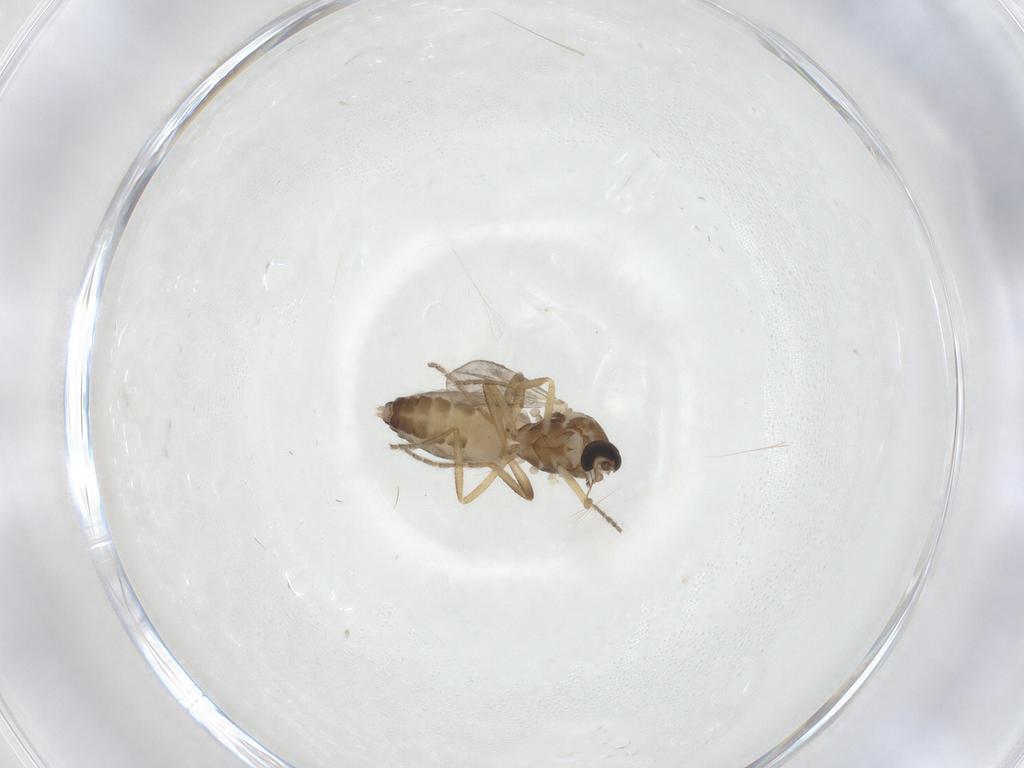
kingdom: Animalia
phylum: Arthropoda
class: Insecta
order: Diptera
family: Ceratopogonidae
